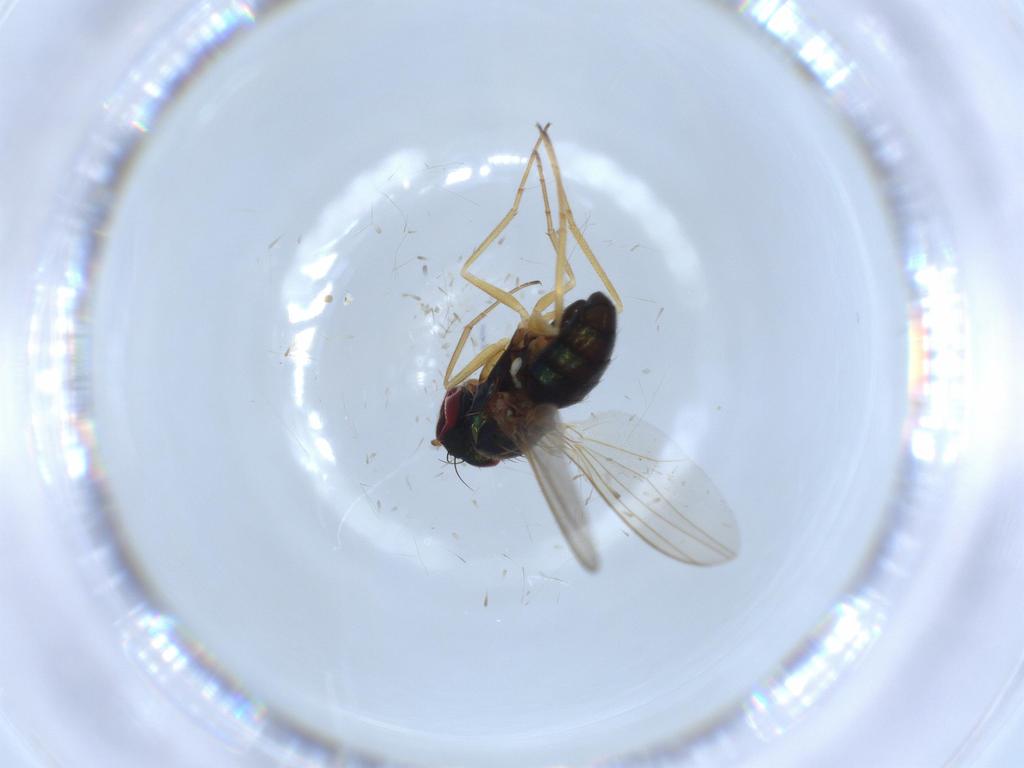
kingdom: Animalia
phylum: Arthropoda
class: Insecta
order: Diptera
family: Dolichopodidae
